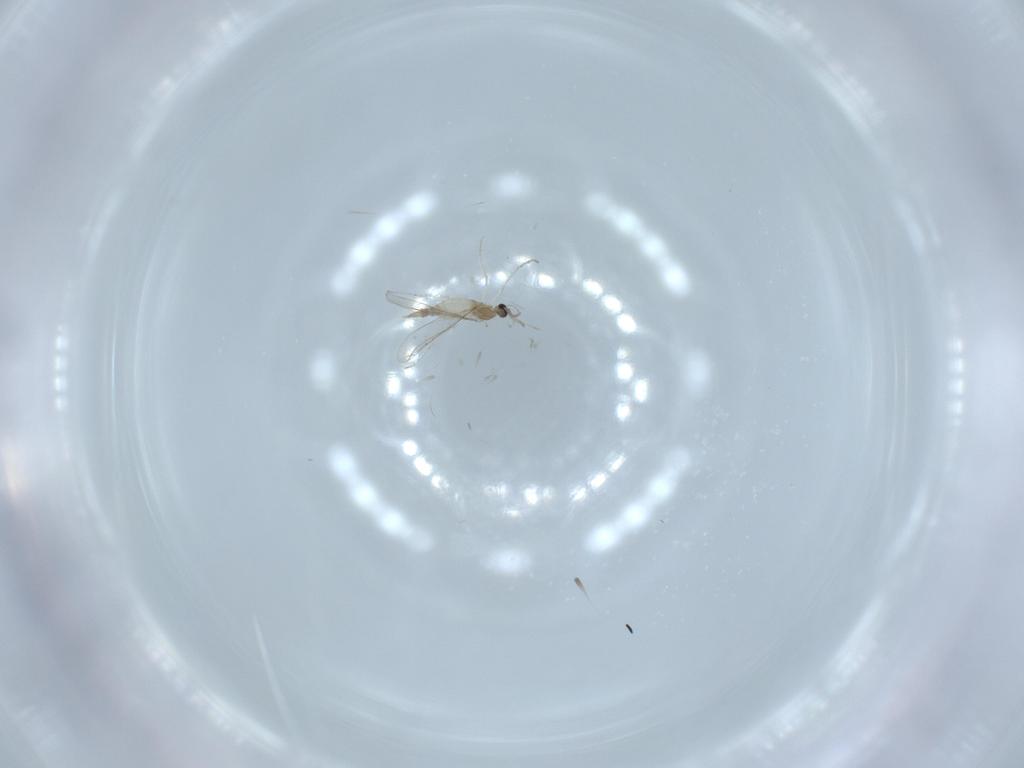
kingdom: Animalia
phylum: Arthropoda
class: Insecta
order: Diptera
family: Cecidomyiidae
